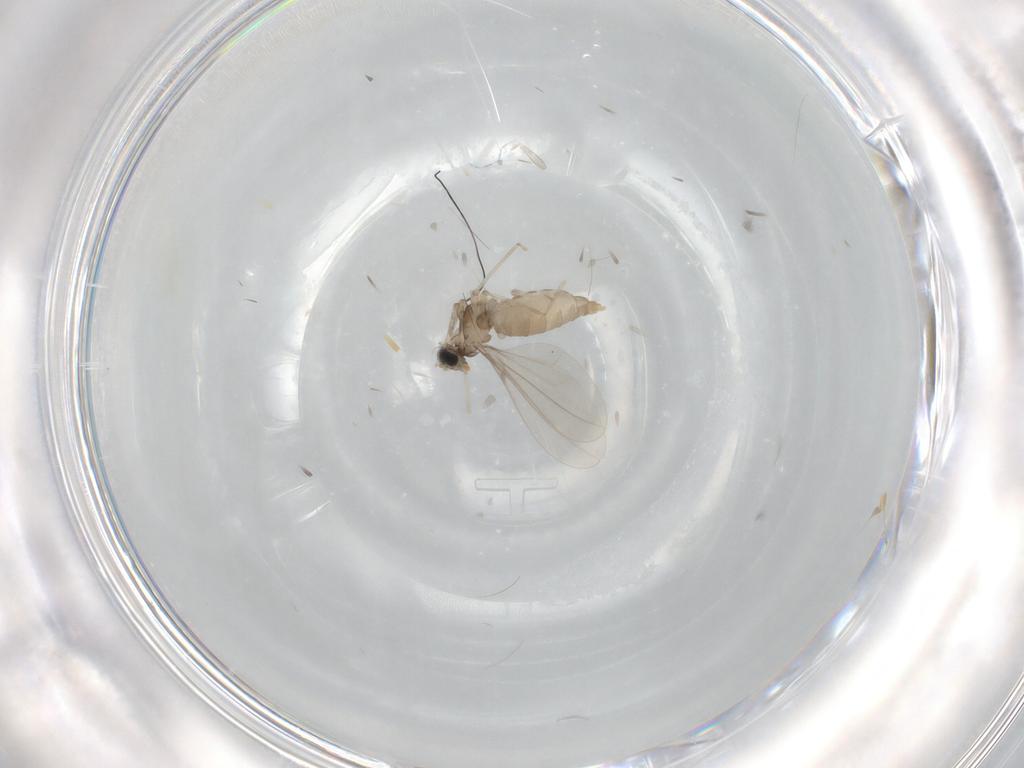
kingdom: Animalia
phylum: Arthropoda
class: Insecta
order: Diptera
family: Cecidomyiidae
